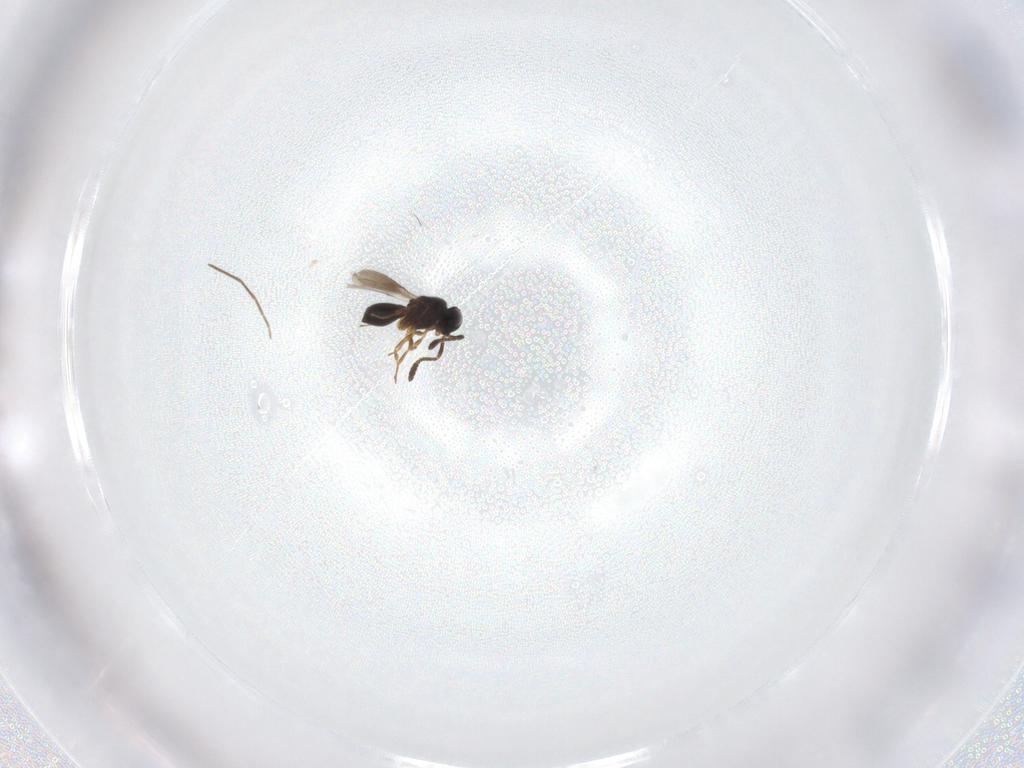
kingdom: Animalia
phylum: Arthropoda
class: Insecta
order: Hymenoptera
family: Scelionidae
